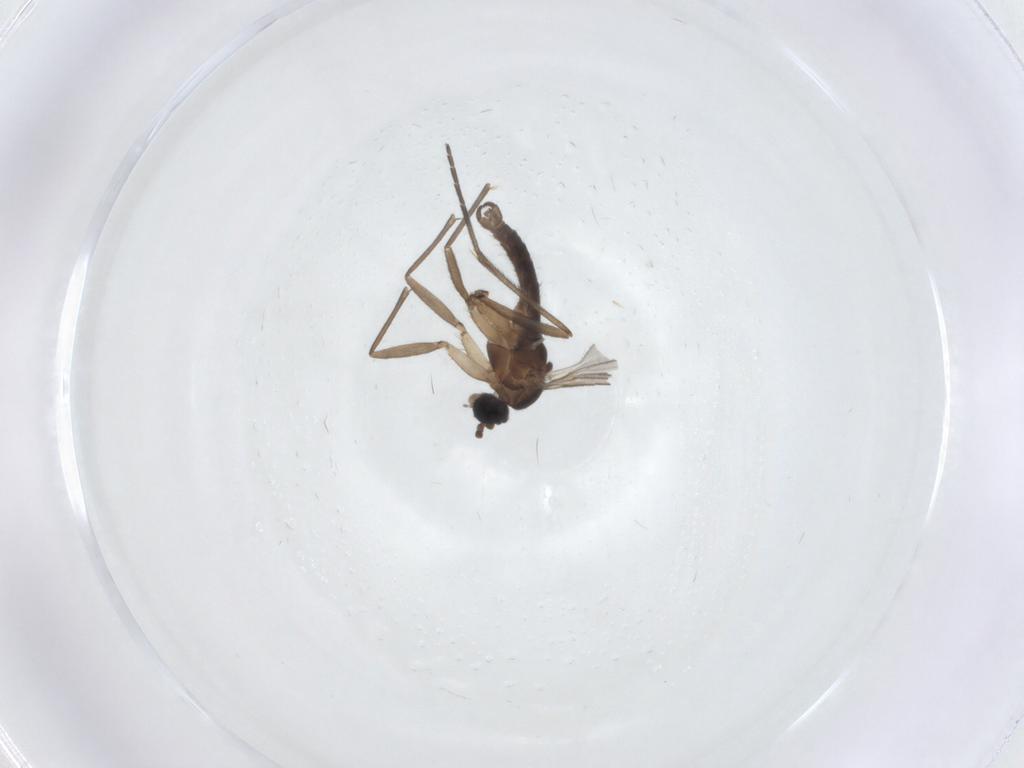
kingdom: Animalia
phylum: Arthropoda
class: Insecta
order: Diptera
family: Sciaridae
